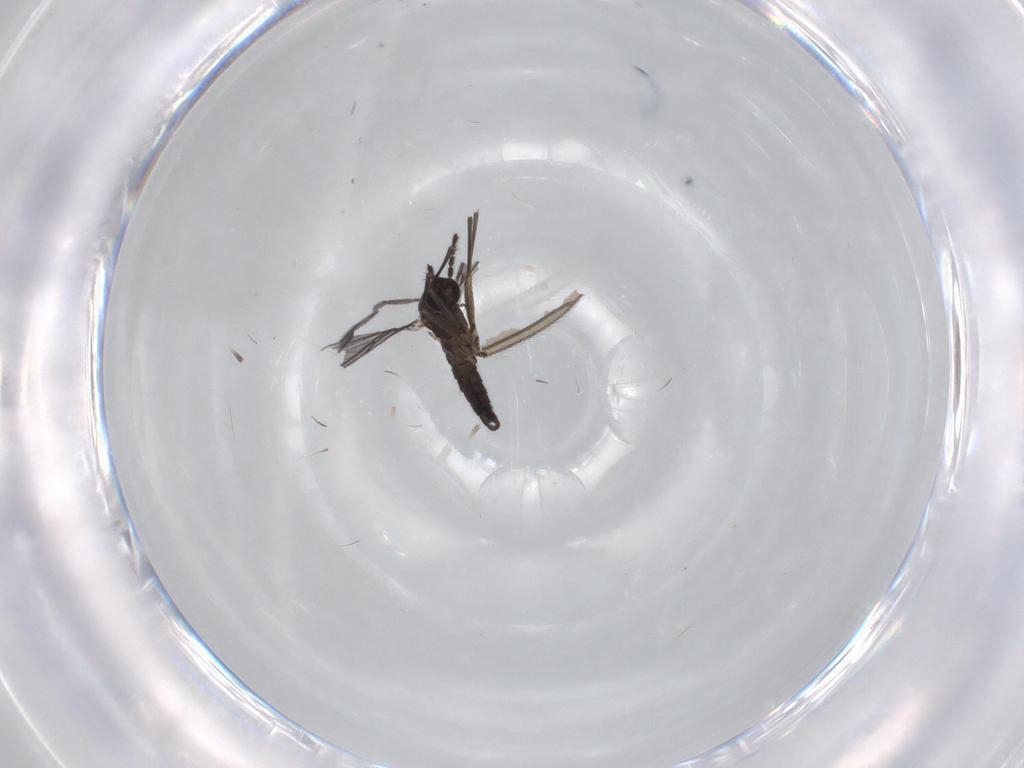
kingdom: Animalia
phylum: Arthropoda
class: Insecta
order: Diptera
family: Sciaridae
